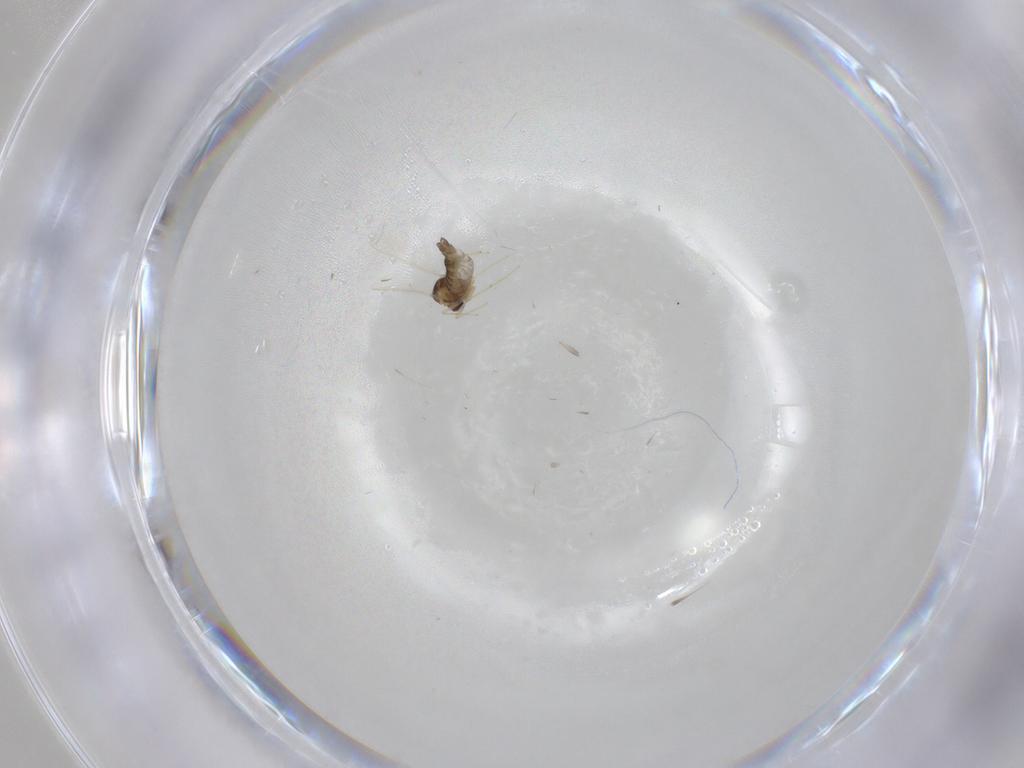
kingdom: Animalia
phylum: Arthropoda
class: Insecta
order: Diptera
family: Chironomidae
